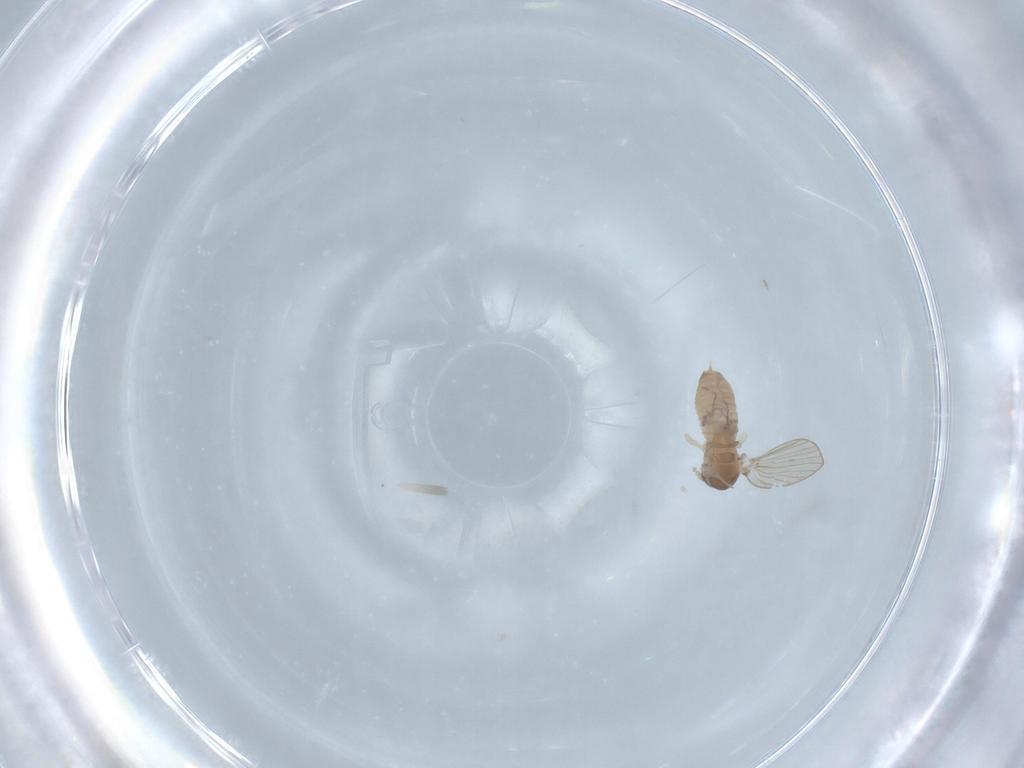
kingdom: Animalia
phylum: Arthropoda
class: Insecta
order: Diptera
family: Psychodidae
